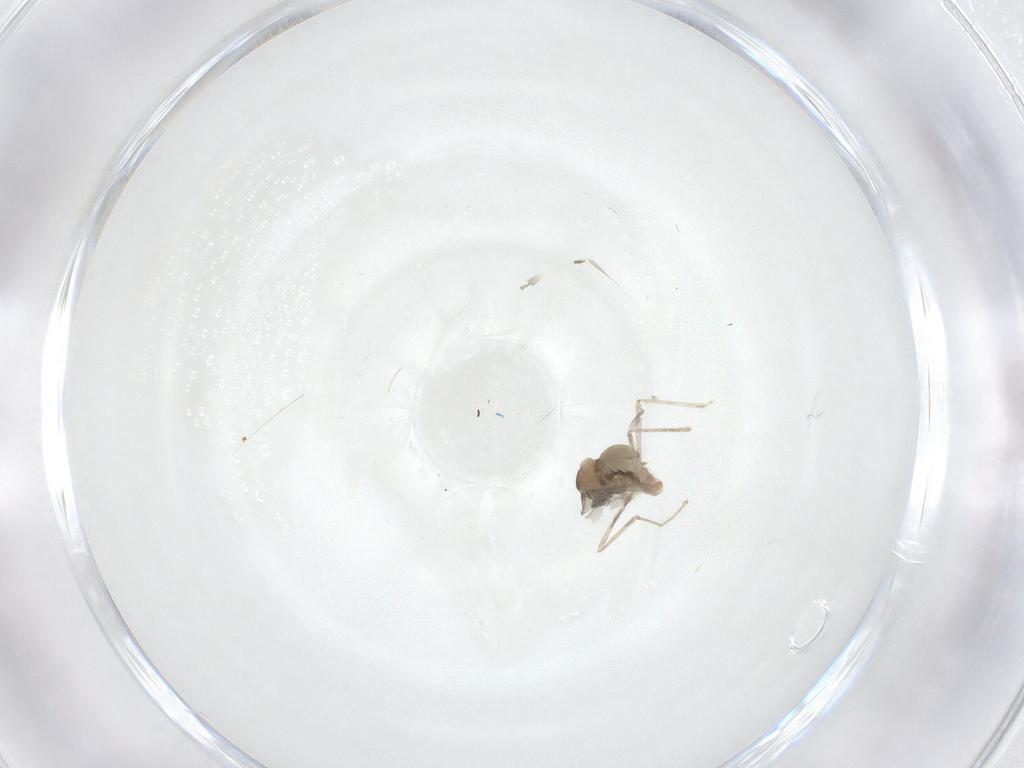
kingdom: Animalia
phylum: Arthropoda
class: Insecta
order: Diptera
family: Cecidomyiidae
